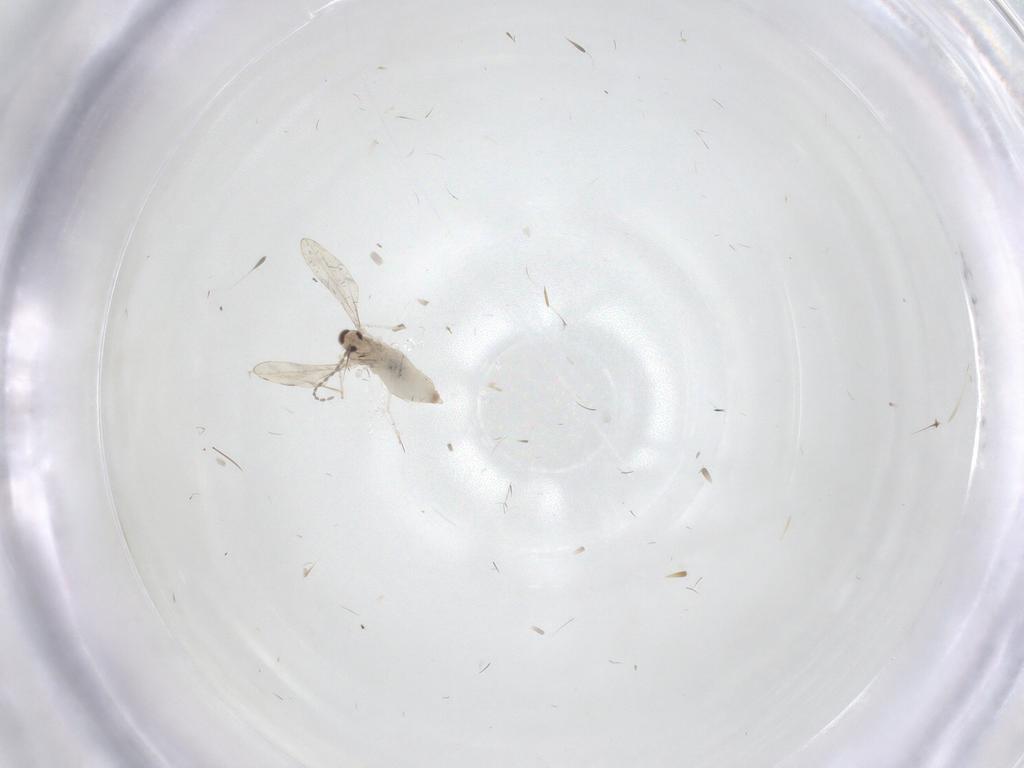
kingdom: Animalia
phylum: Arthropoda
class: Insecta
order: Diptera
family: Cecidomyiidae
